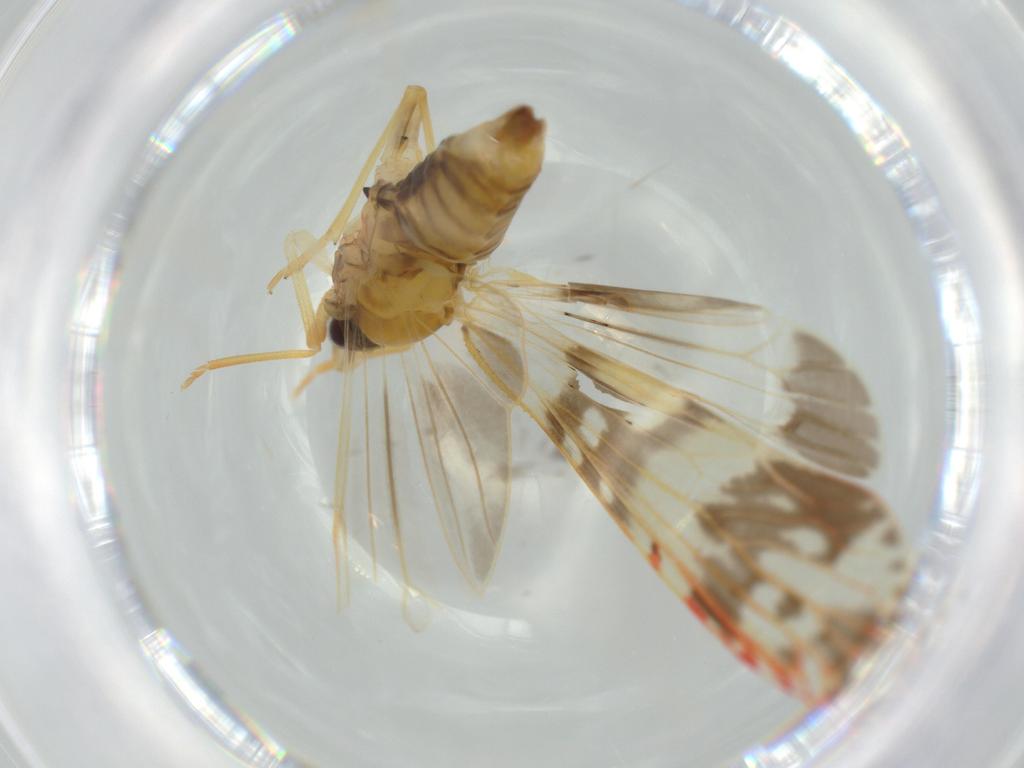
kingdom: Animalia
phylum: Arthropoda
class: Insecta
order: Hemiptera
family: Derbidae
